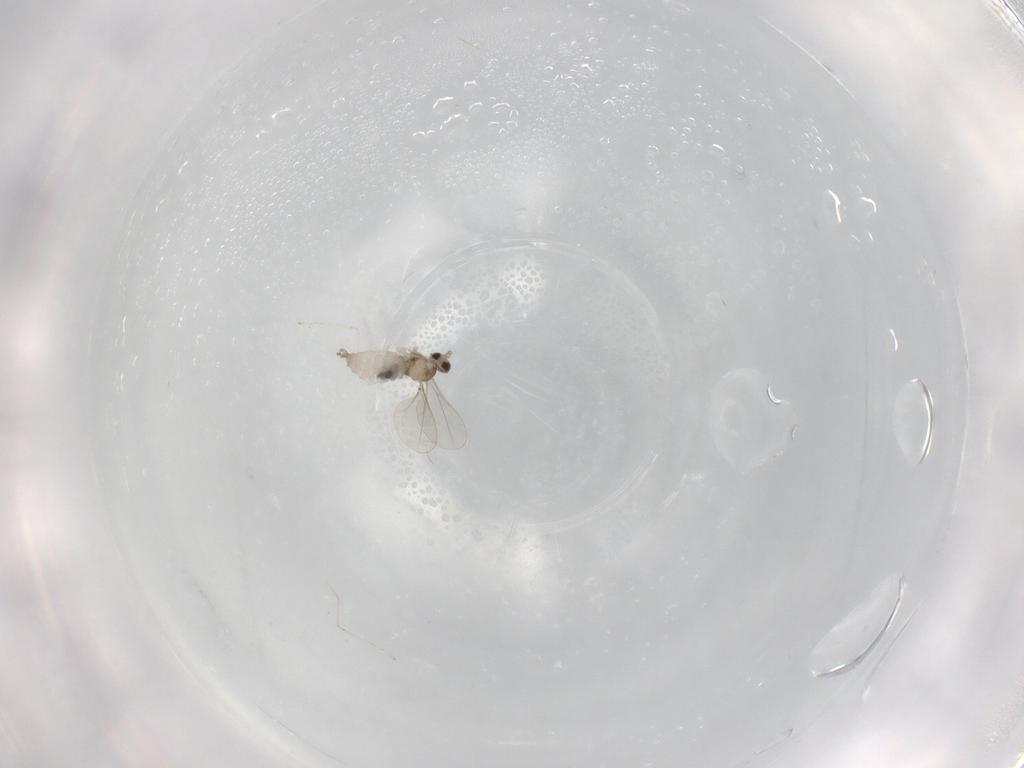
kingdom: Animalia
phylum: Arthropoda
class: Insecta
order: Diptera
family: Cecidomyiidae
